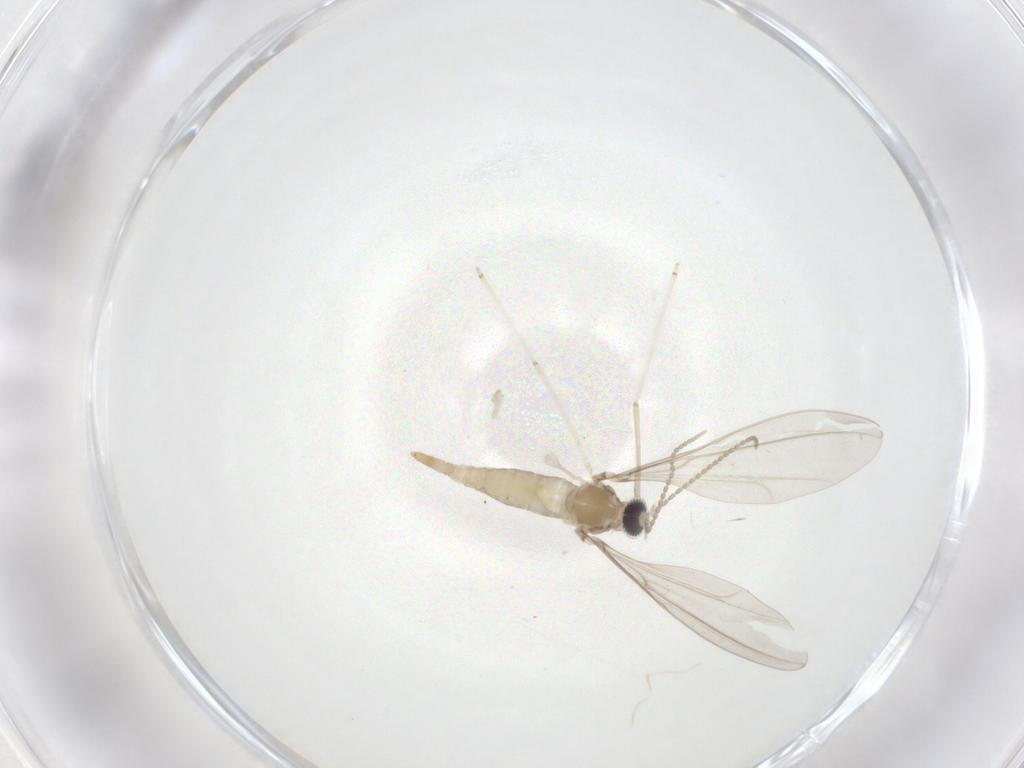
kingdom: Animalia
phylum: Arthropoda
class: Insecta
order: Diptera
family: Cecidomyiidae
